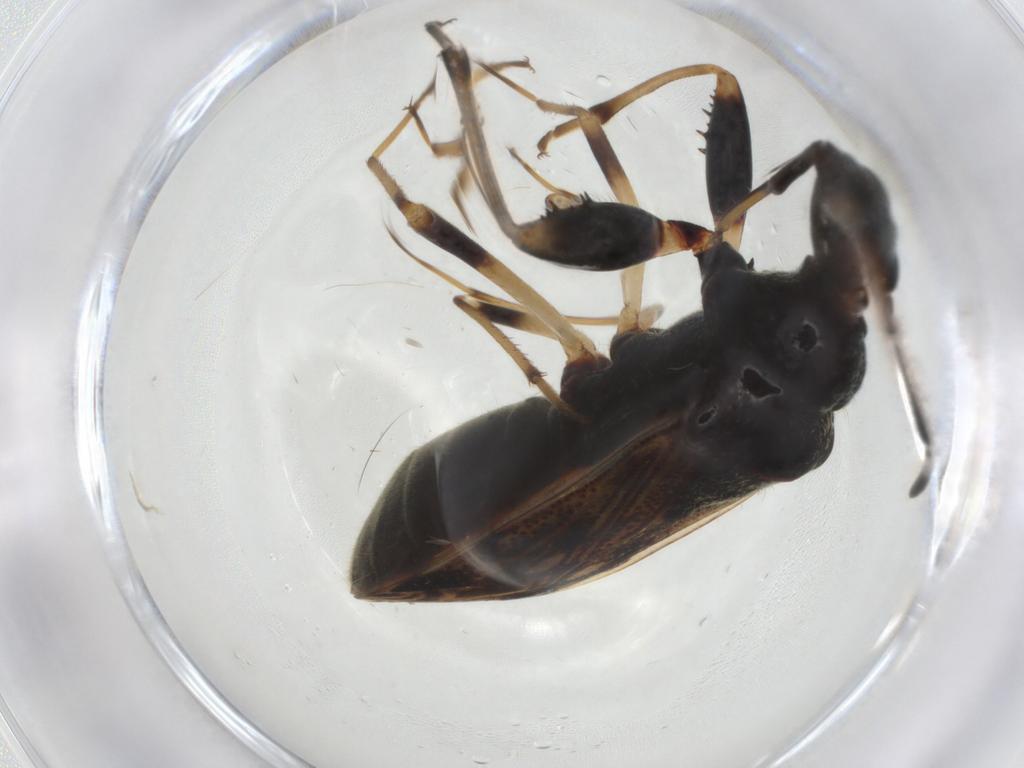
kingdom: Animalia
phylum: Arthropoda
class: Insecta
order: Hemiptera
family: Rhyparochromidae
